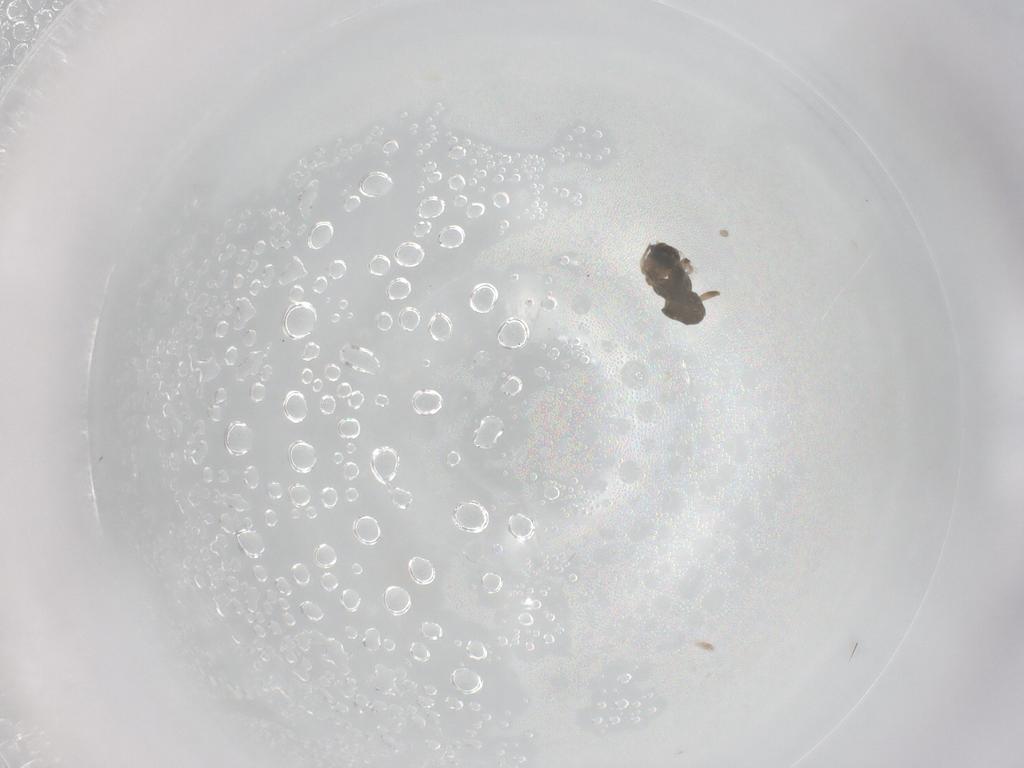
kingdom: Animalia
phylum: Arthropoda
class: Insecta
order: Diptera
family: Ceratopogonidae
